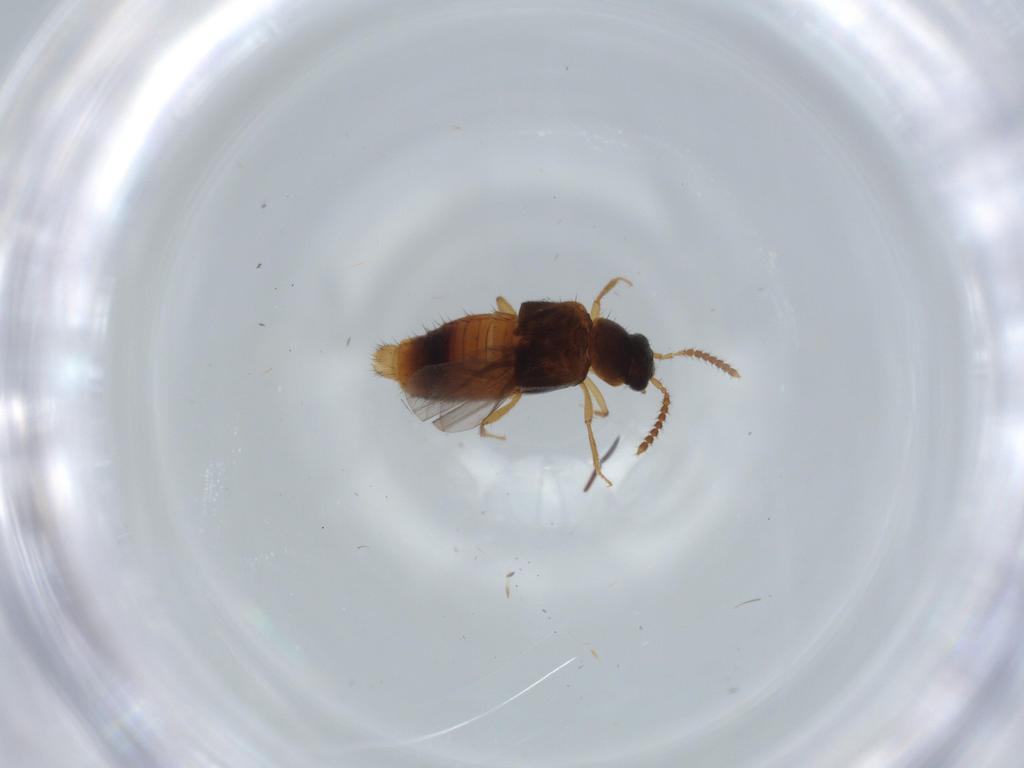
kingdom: Animalia
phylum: Arthropoda
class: Insecta
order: Coleoptera
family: Staphylinidae
